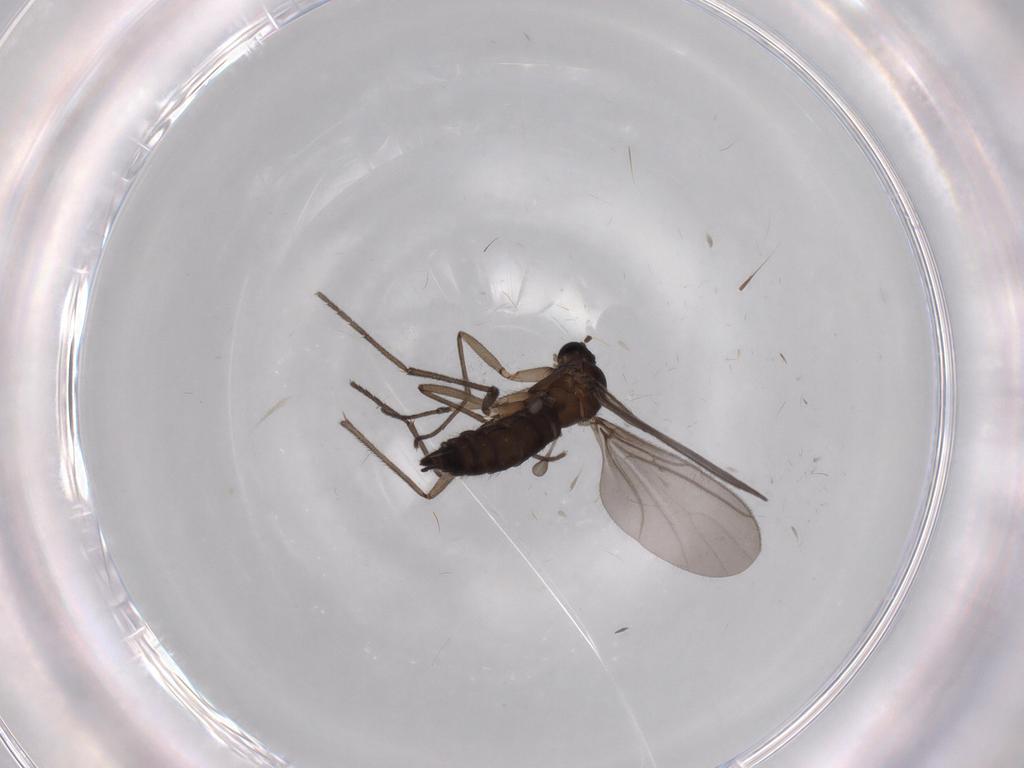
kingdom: Animalia
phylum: Arthropoda
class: Insecta
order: Diptera
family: Sciaridae
